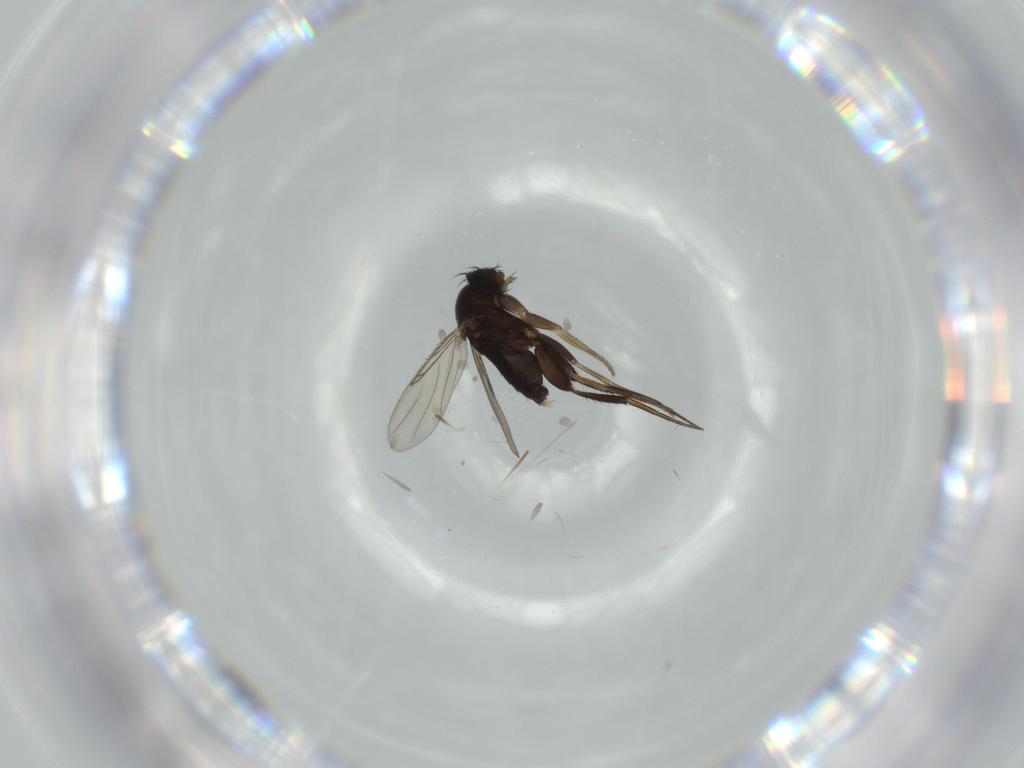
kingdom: Animalia
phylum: Arthropoda
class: Insecta
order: Diptera
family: Phoridae
